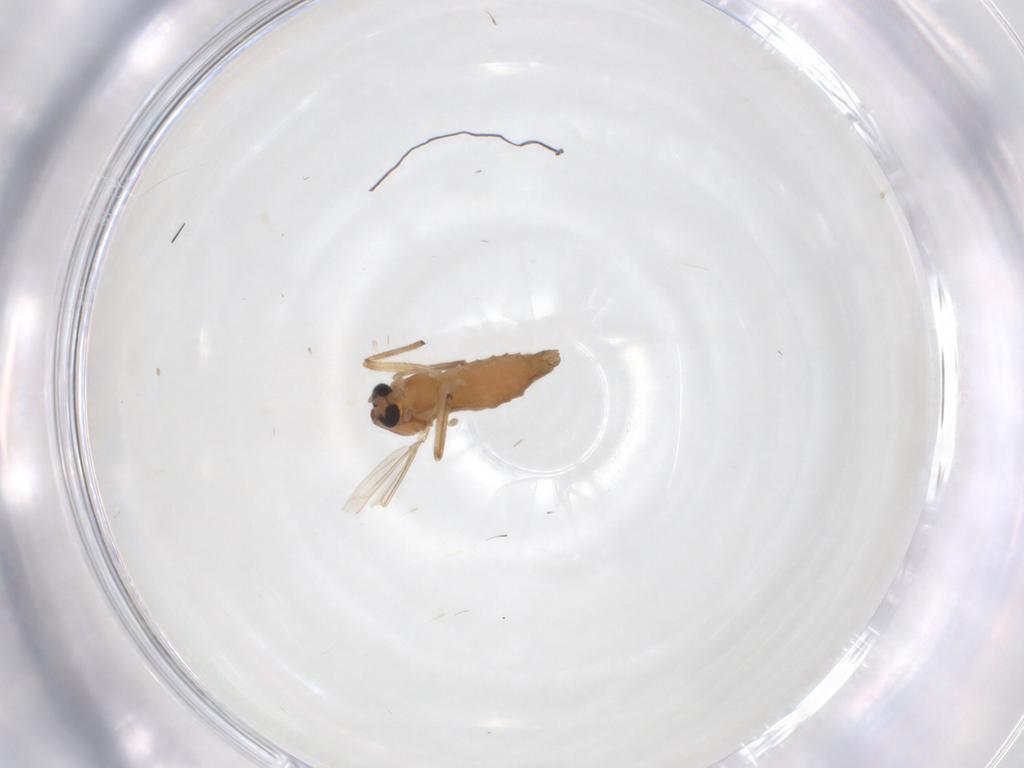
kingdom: Animalia
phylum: Arthropoda
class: Insecta
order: Diptera
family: Chironomidae
